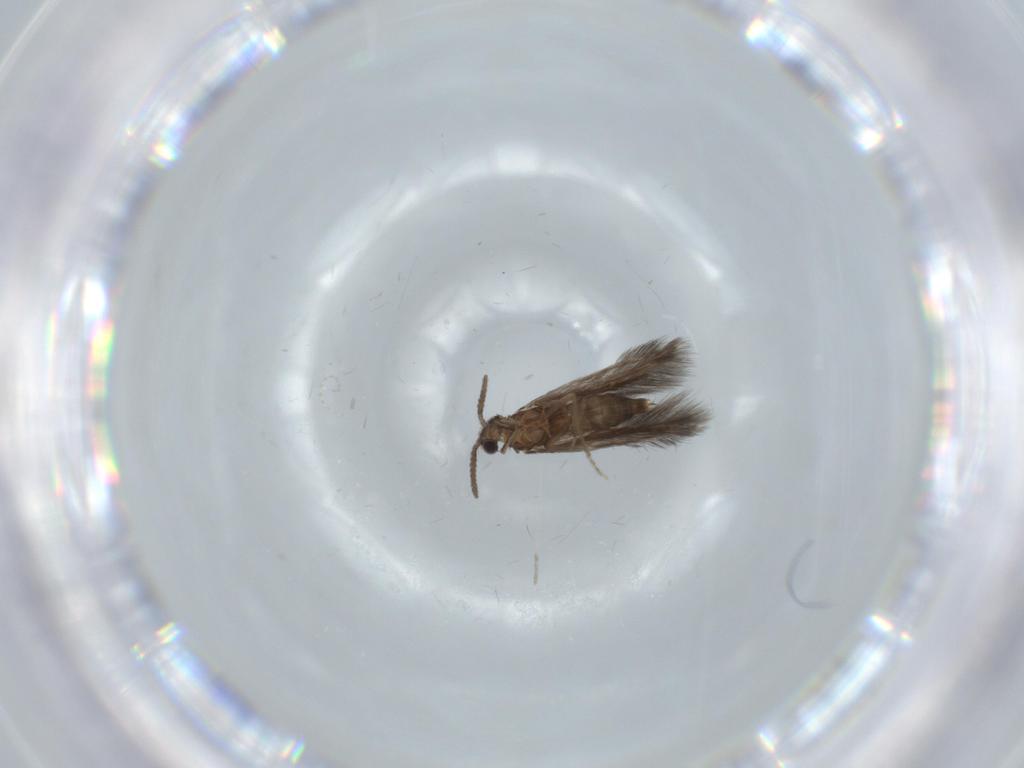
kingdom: Animalia
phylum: Arthropoda
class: Insecta
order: Trichoptera
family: Hydroptilidae
